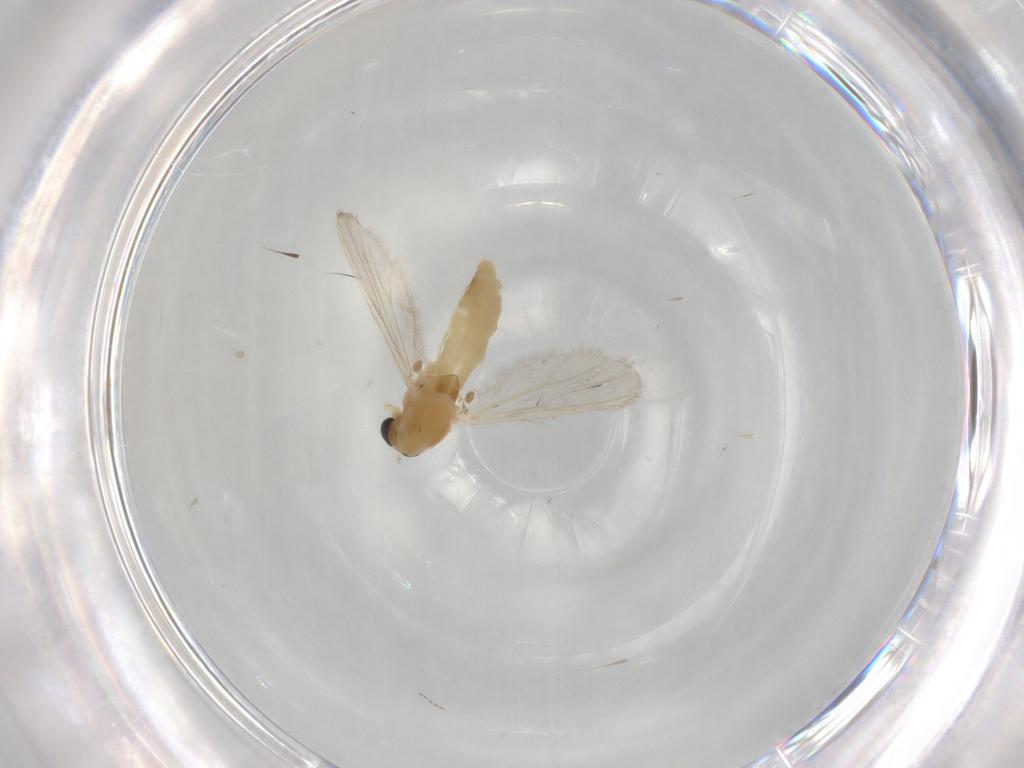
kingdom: Animalia
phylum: Arthropoda
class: Insecta
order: Diptera
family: Chironomidae
